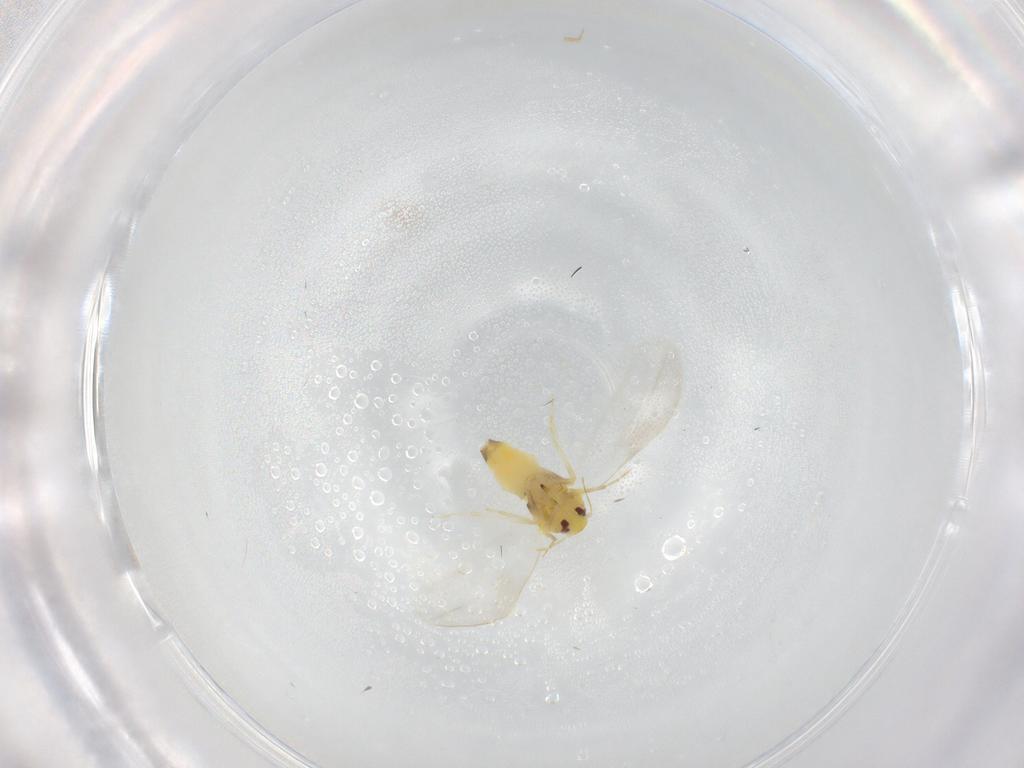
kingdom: Animalia
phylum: Arthropoda
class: Insecta
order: Hemiptera
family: Aleyrodidae
